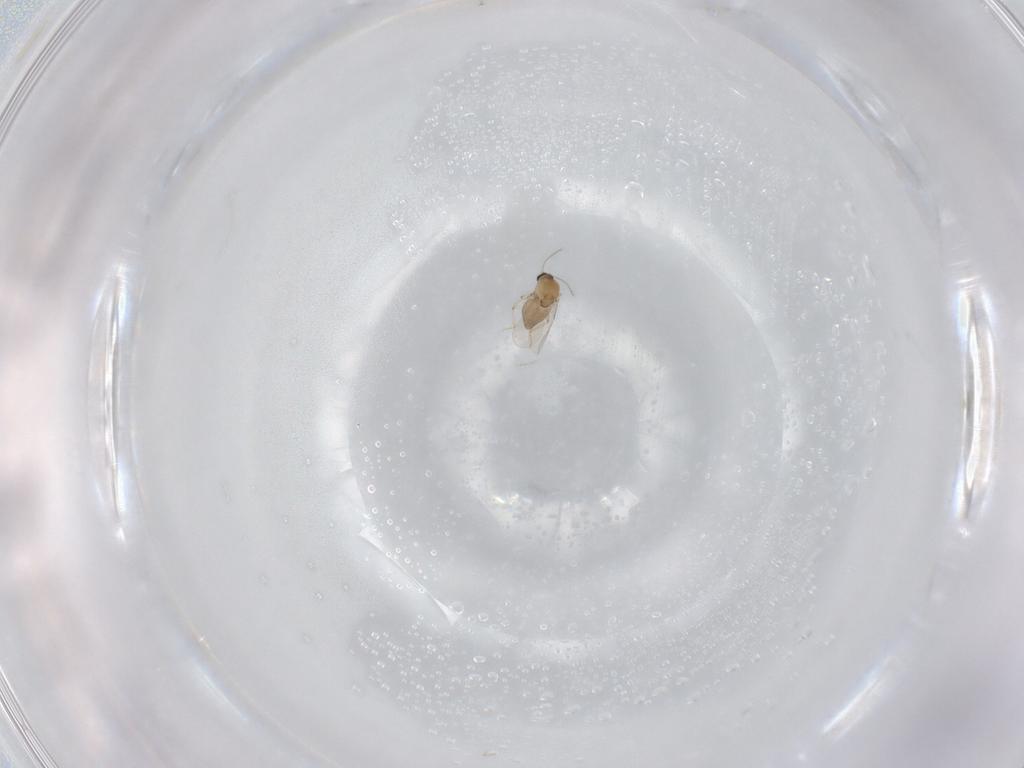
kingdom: Animalia
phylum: Arthropoda
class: Insecta
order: Diptera
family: Ceratopogonidae
